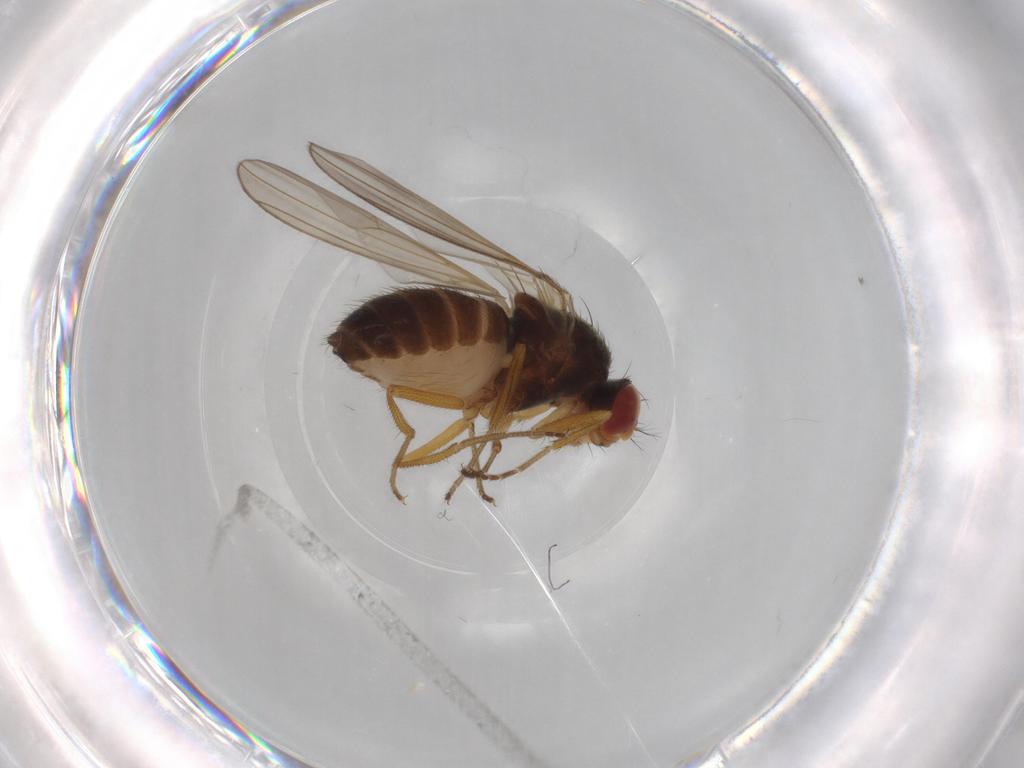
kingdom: Animalia
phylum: Arthropoda
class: Insecta
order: Diptera
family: Drosophilidae
